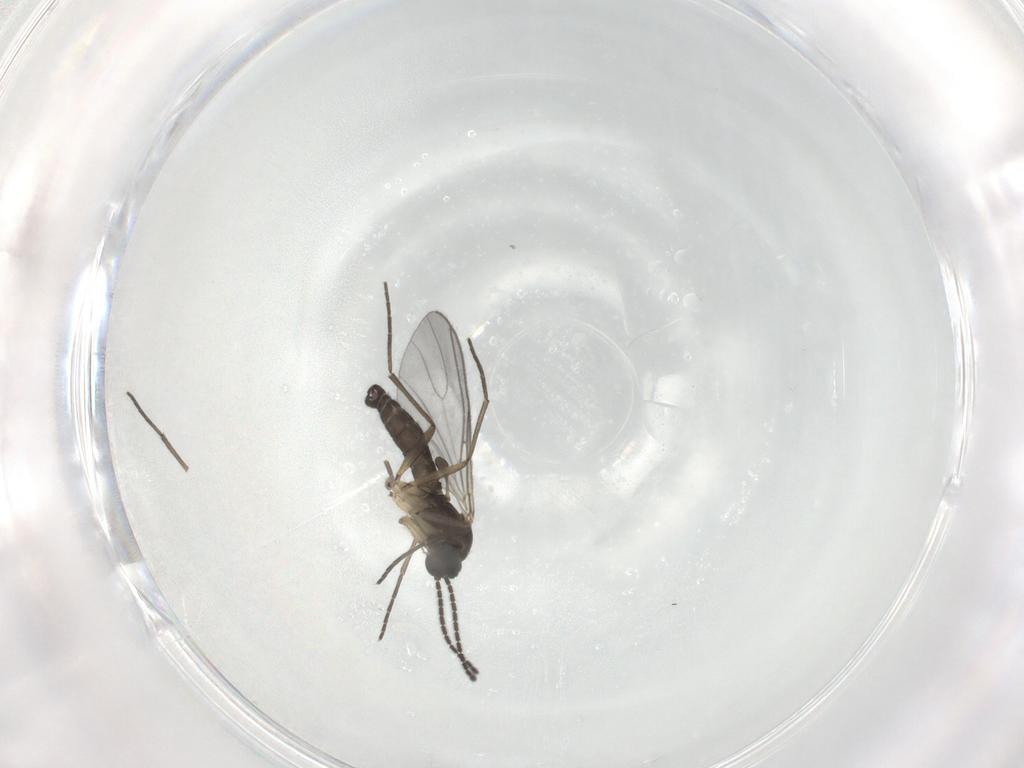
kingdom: Animalia
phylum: Arthropoda
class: Insecta
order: Diptera
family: Sciaridae
